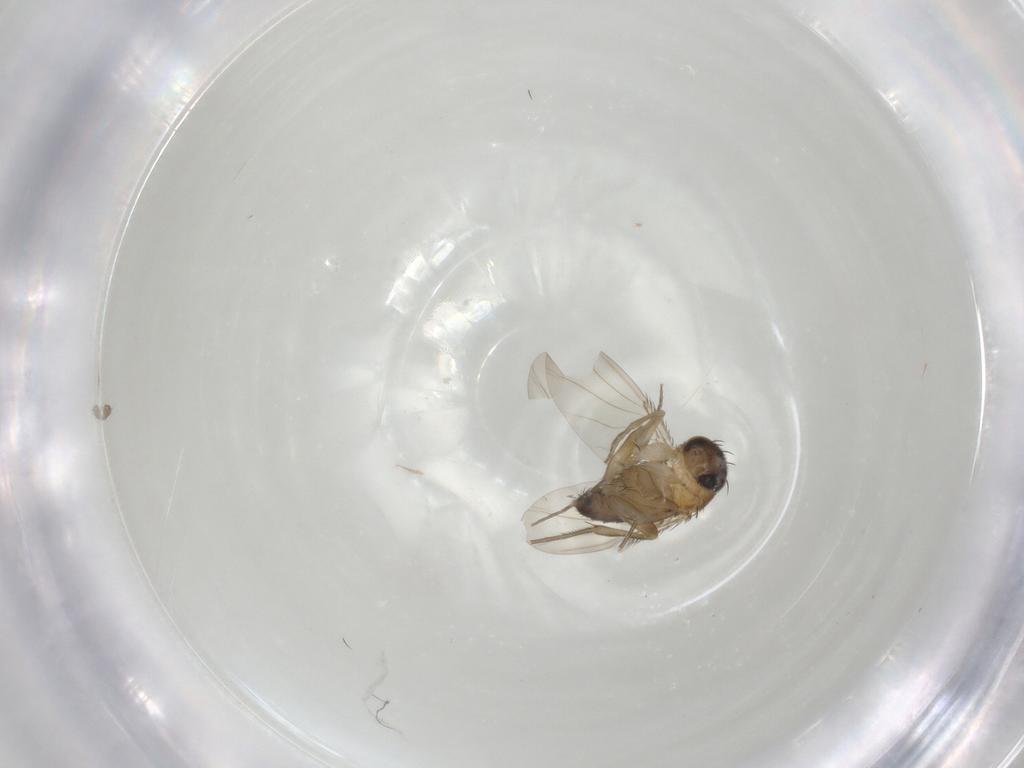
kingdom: Animalia
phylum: Arthropoda
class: Insecta
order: Diptera
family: Phoridae
